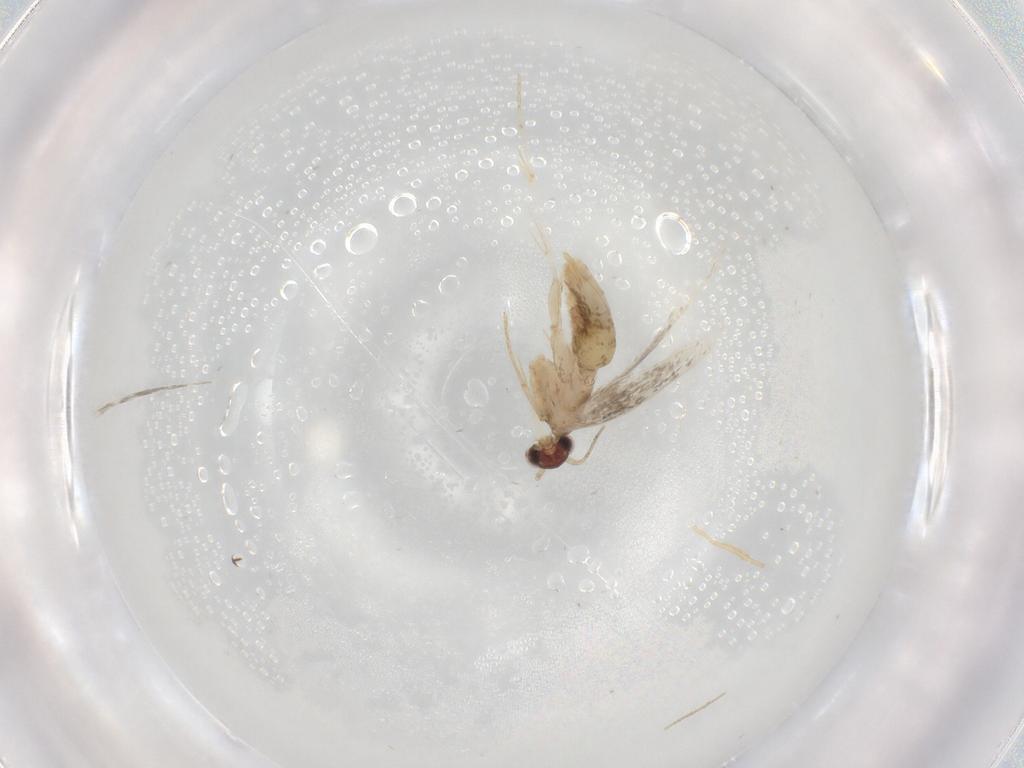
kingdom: Animalia
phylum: Arthropoda
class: Insecta
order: Lepidoptera
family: Tineidae
